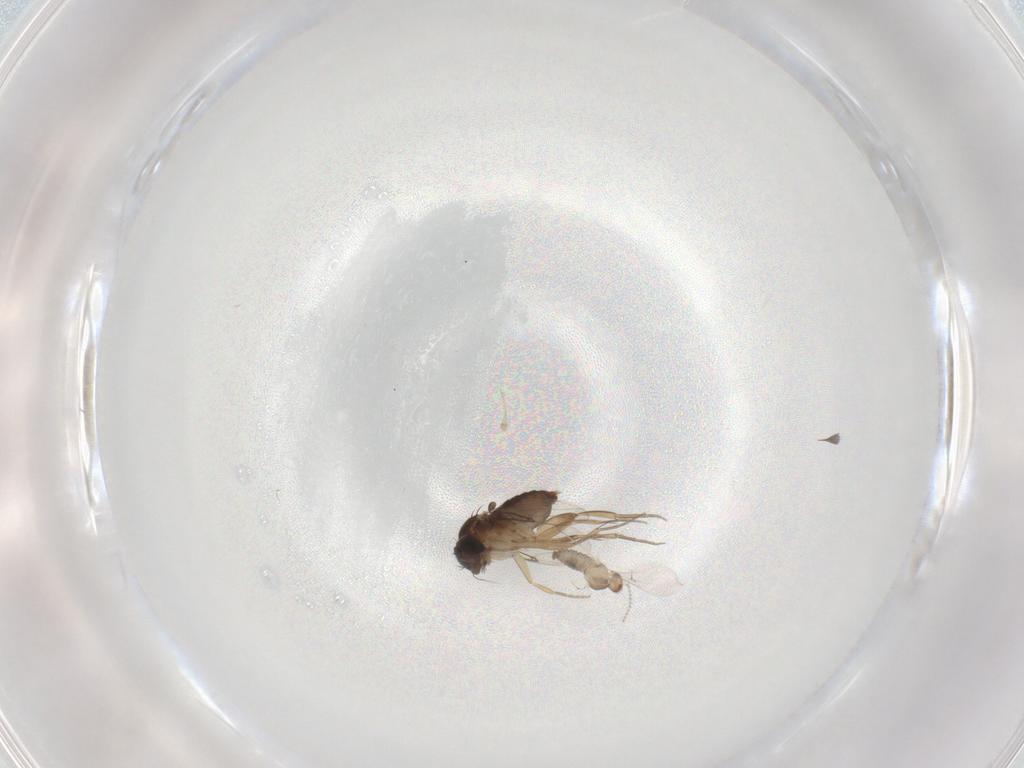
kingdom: Animalia
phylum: Arthropoda
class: Insecta
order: Diptera
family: Cecidomyiidae
